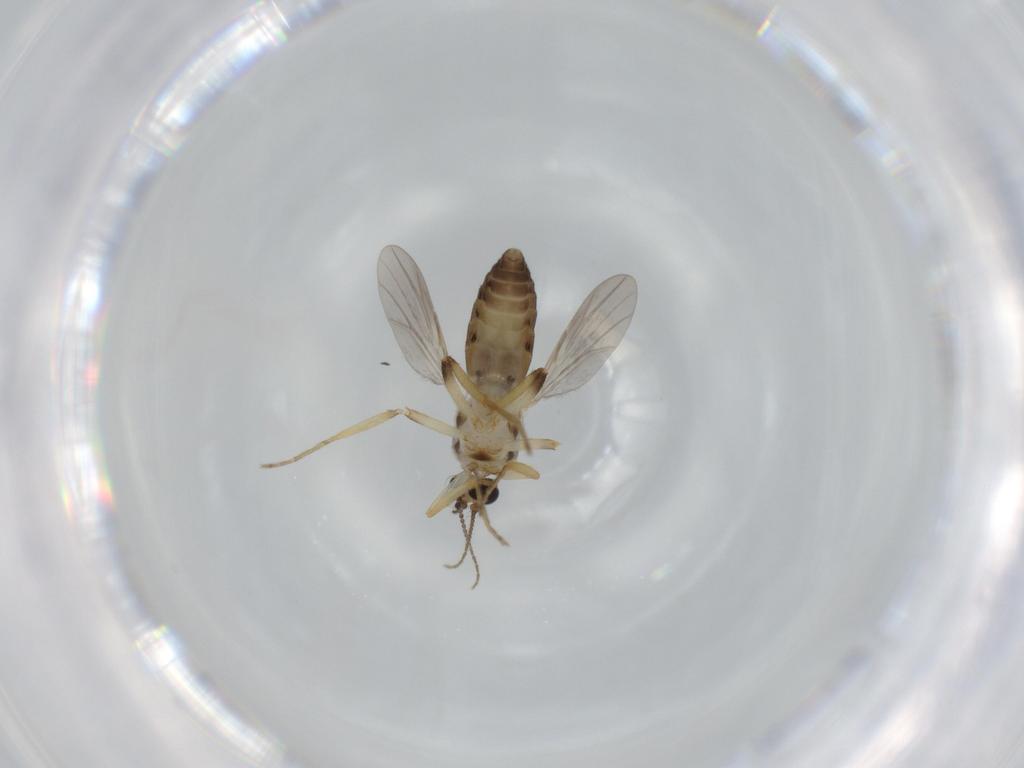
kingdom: Animalia
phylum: Arthropoda
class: Insecta
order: Diptera
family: Ceratopogonidae
